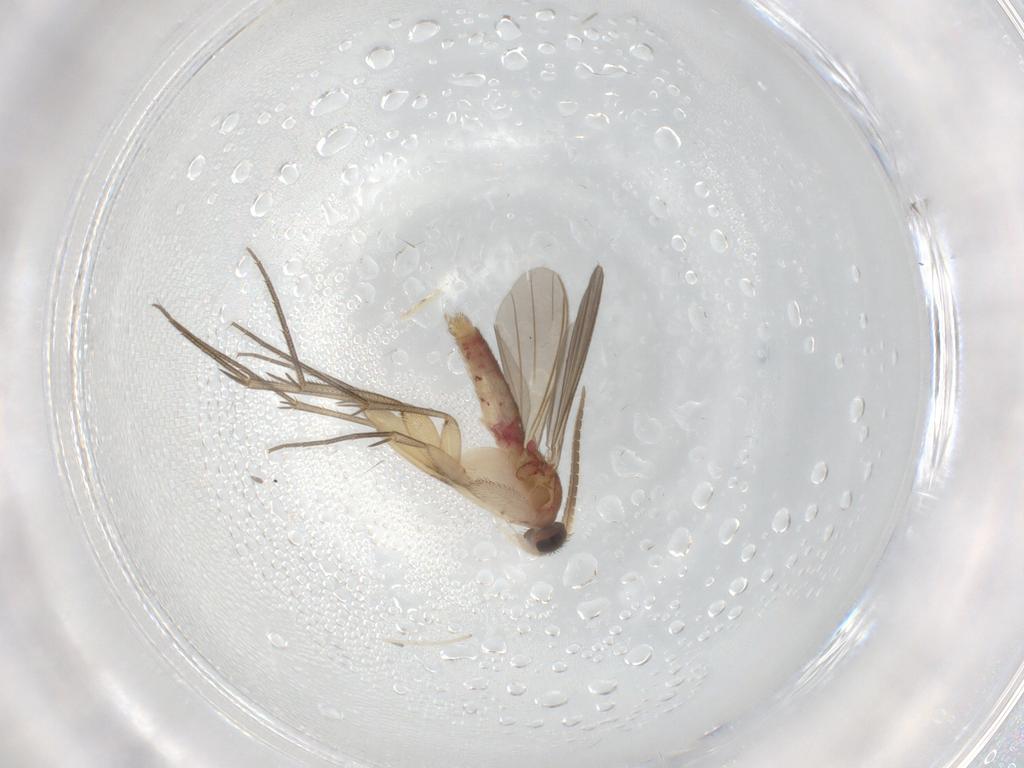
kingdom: Animalia
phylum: Arthropoda
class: Insecta
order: Diptera
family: Mycetophilidae
